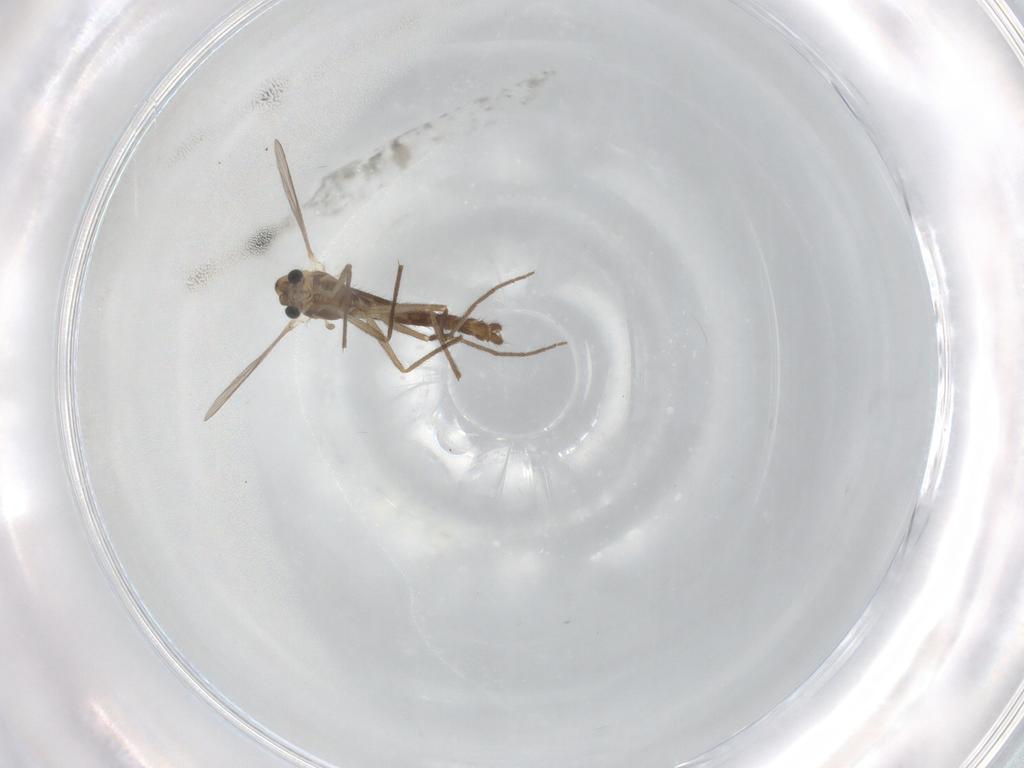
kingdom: Animalia
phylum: Arthropoda
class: Insecta
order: Diptera
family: Chironomidae
